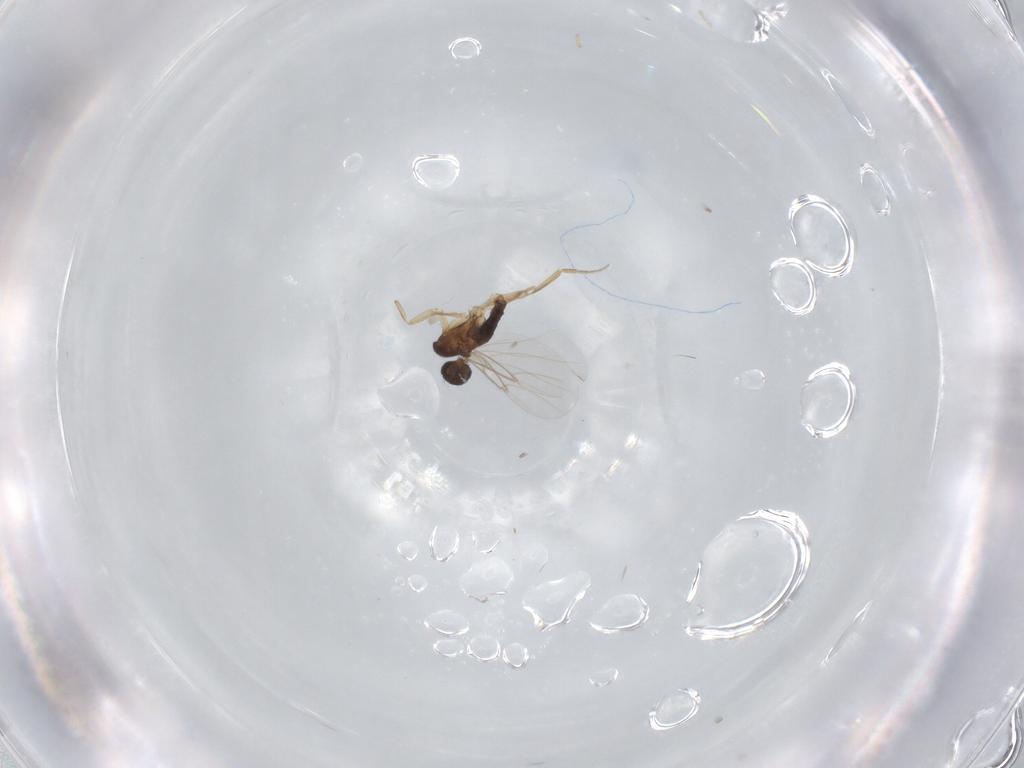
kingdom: Animalia
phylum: Arthropoda
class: Insecta
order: Diptera
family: Phoridae
